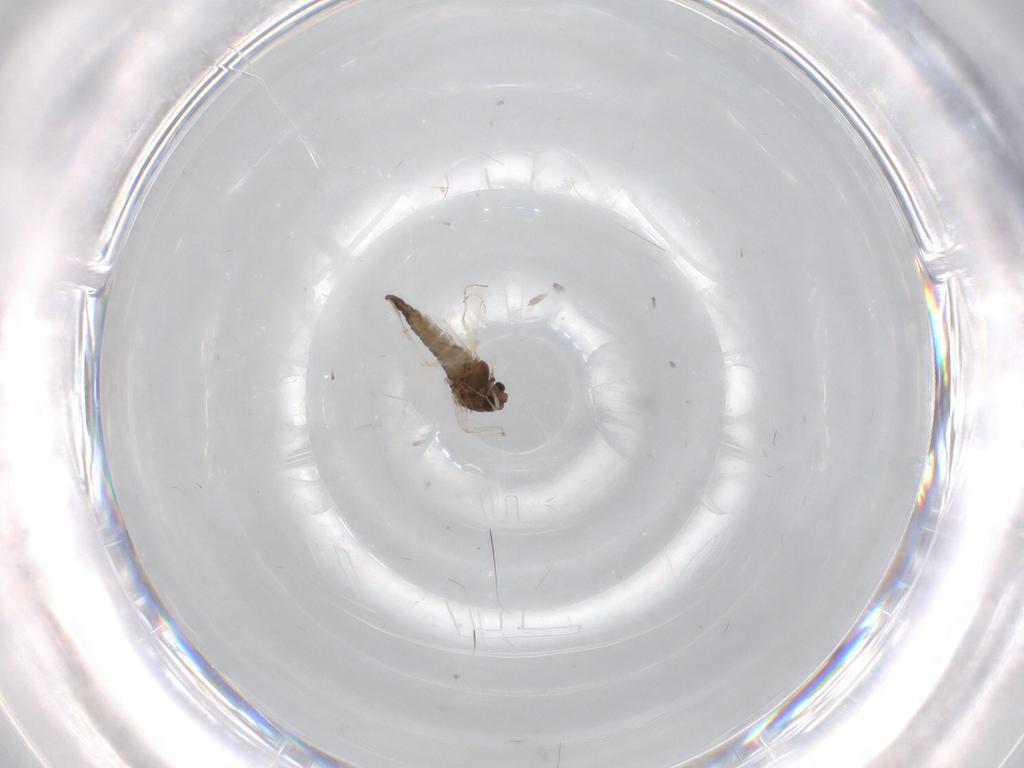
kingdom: Animalia
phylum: Arthropoda
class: Insecta
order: Diptera
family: Chironomidae
